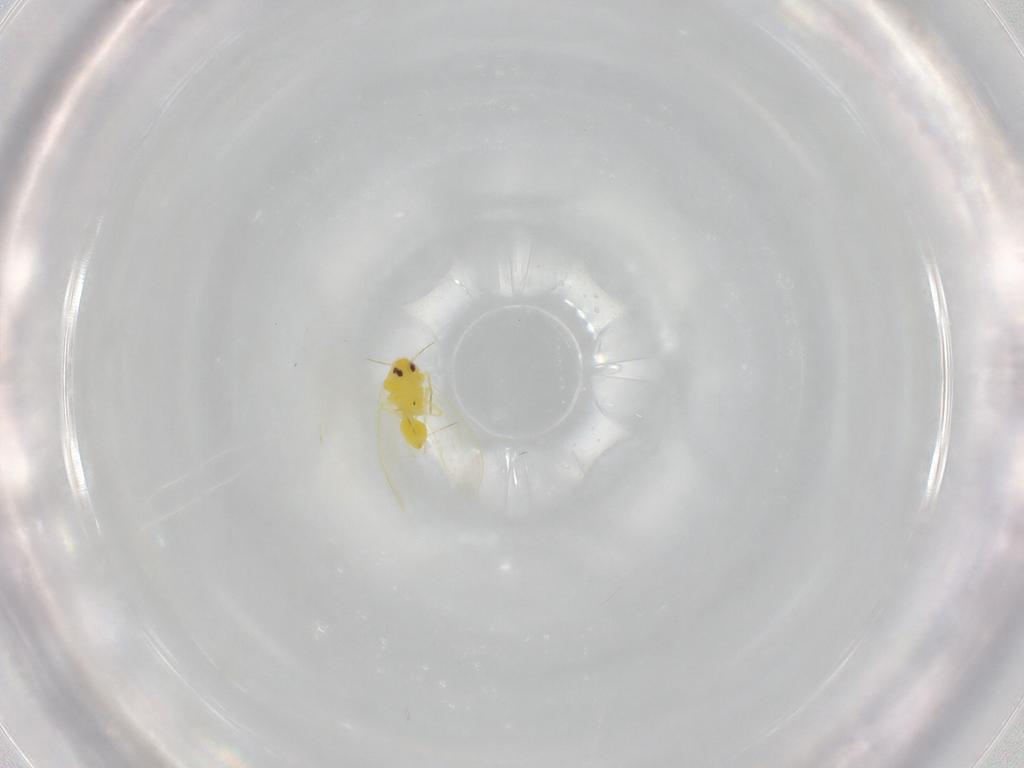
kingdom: Animalia
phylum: Arthropoda
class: Insecta
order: Hemiptera
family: Aleyrodidae
